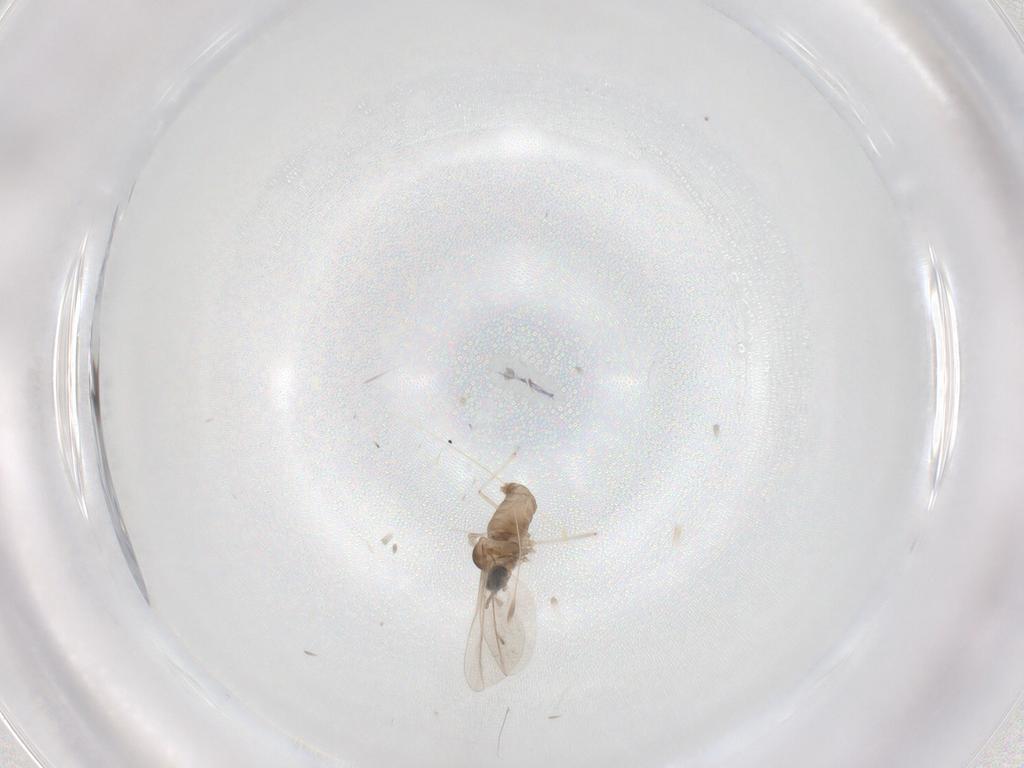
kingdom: Animalia
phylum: Arthropoda
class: Insecta
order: Diptera
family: Cecidomyiidae
